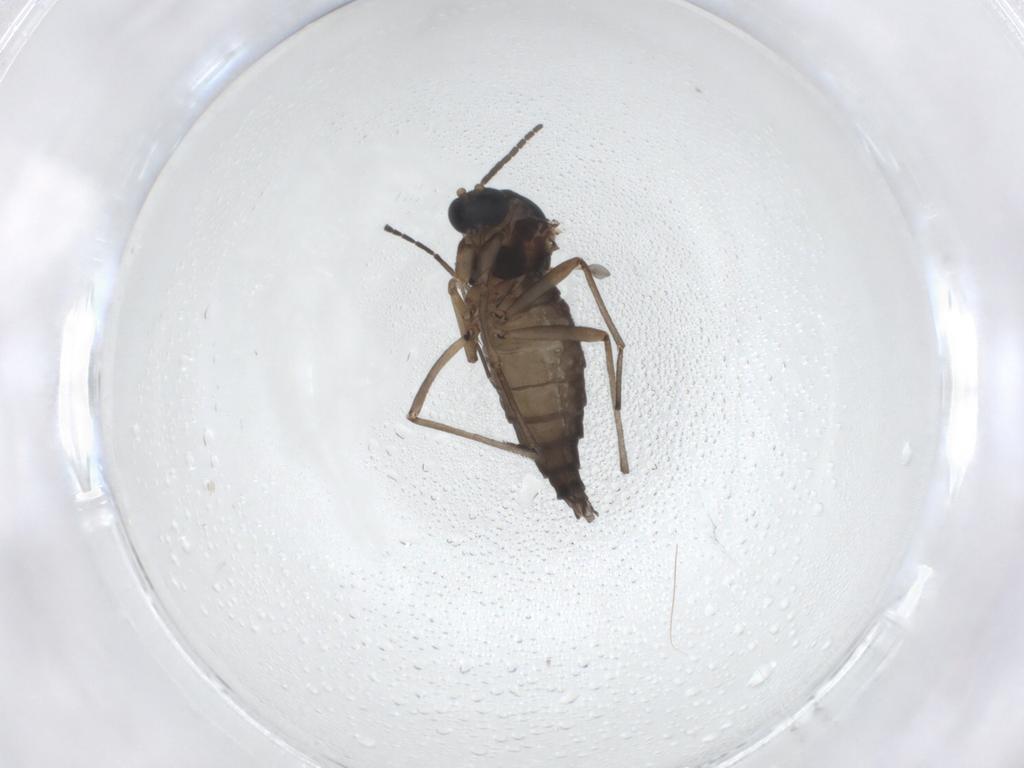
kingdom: Animalia
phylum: Arthropoda
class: Insecta
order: Diptera
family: Sciaridae
